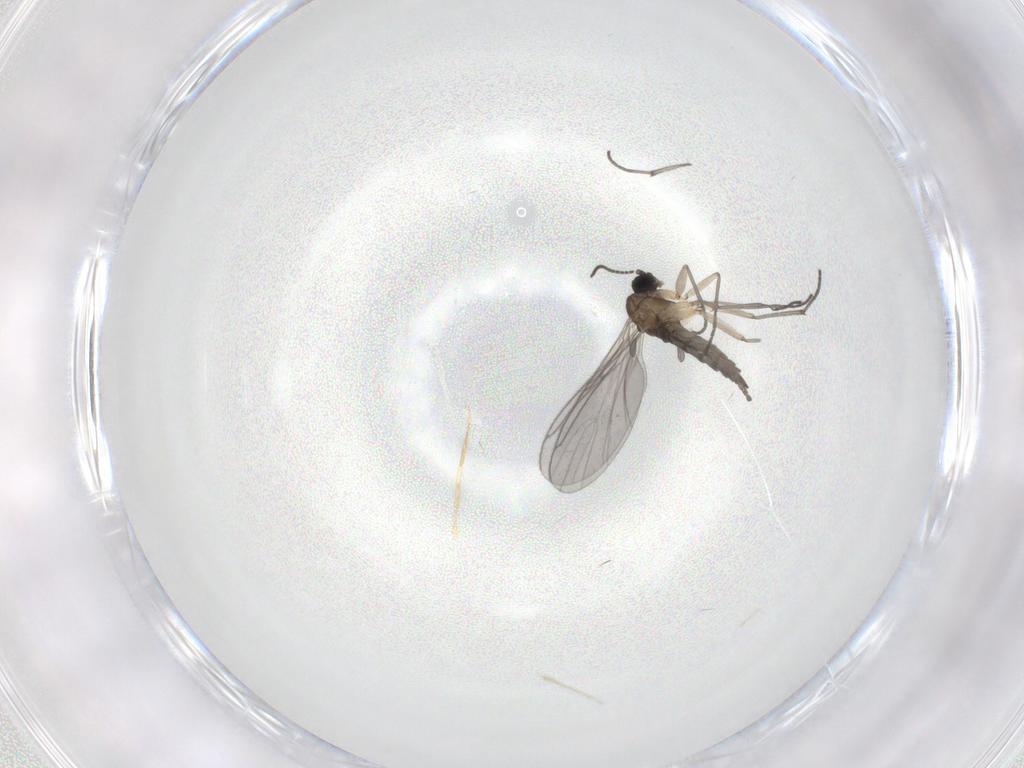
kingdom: Animalia
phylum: Arthropoda
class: Insecta
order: Diptera
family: Sciaridae
